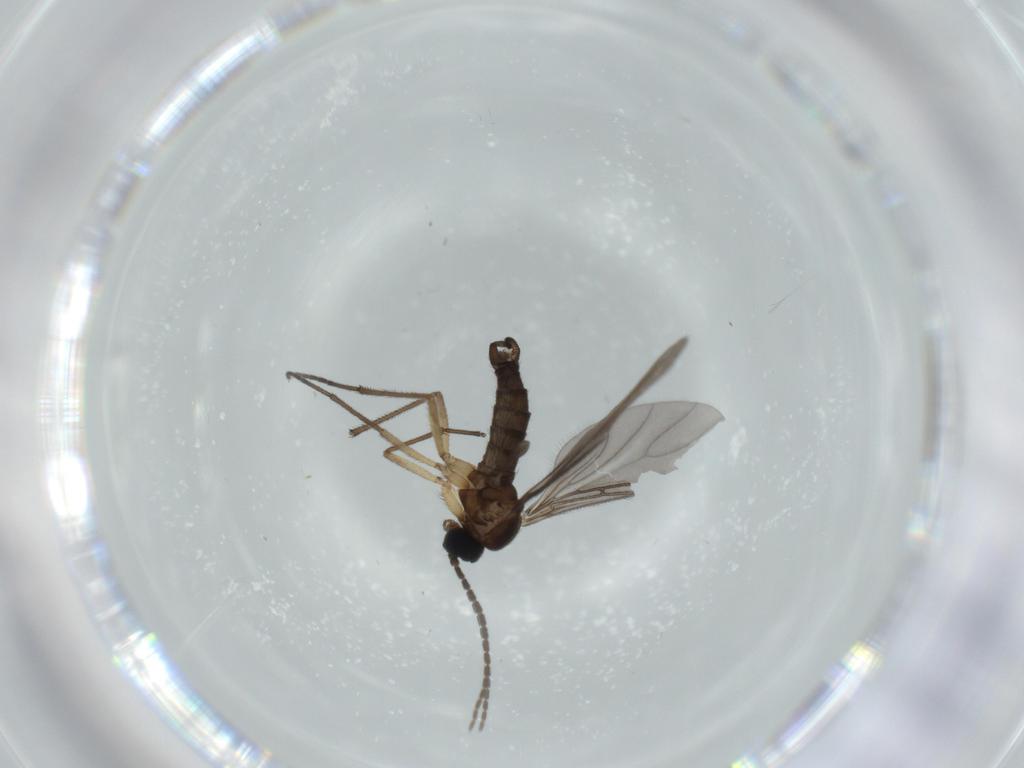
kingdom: Animalia
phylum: Arthropoda
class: Insecta
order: Diptera
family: Sciaridae
